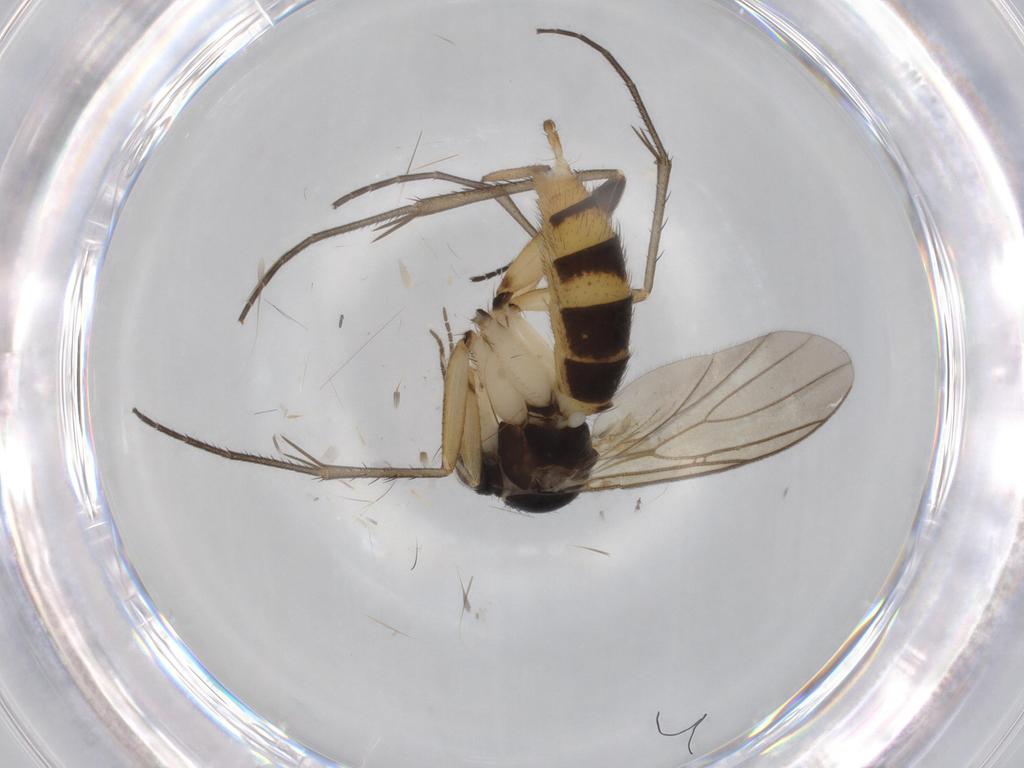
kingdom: Animalia
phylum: Arthropoda
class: Insecta
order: Diptera
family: Mycetophilidae
